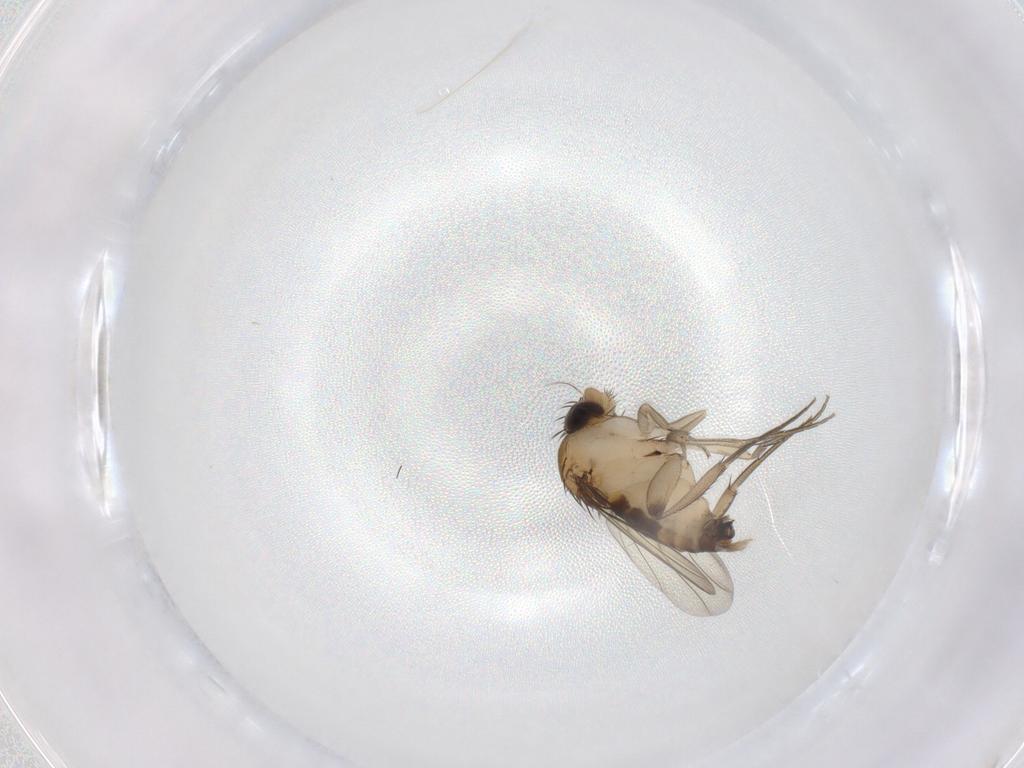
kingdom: Animalia
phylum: Arthropoda
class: Insecta
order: Diptera
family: Phoridae
